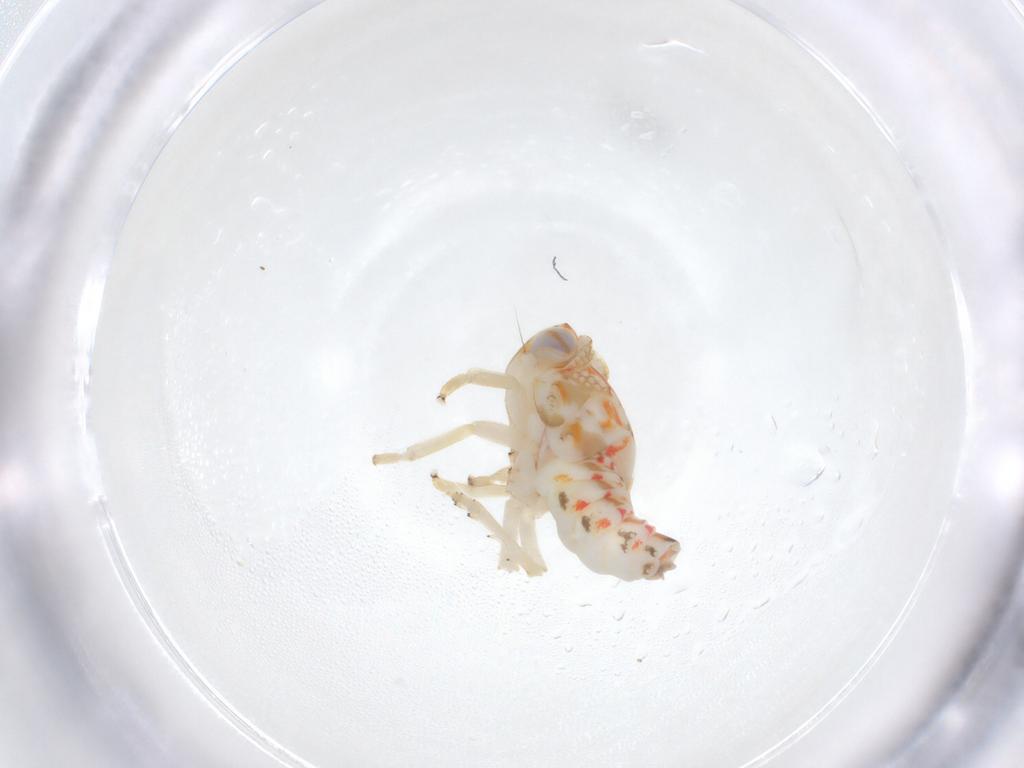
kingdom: Animalia
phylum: Arthropoda
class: Insecta
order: Hemiptera
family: Nogodinidae
